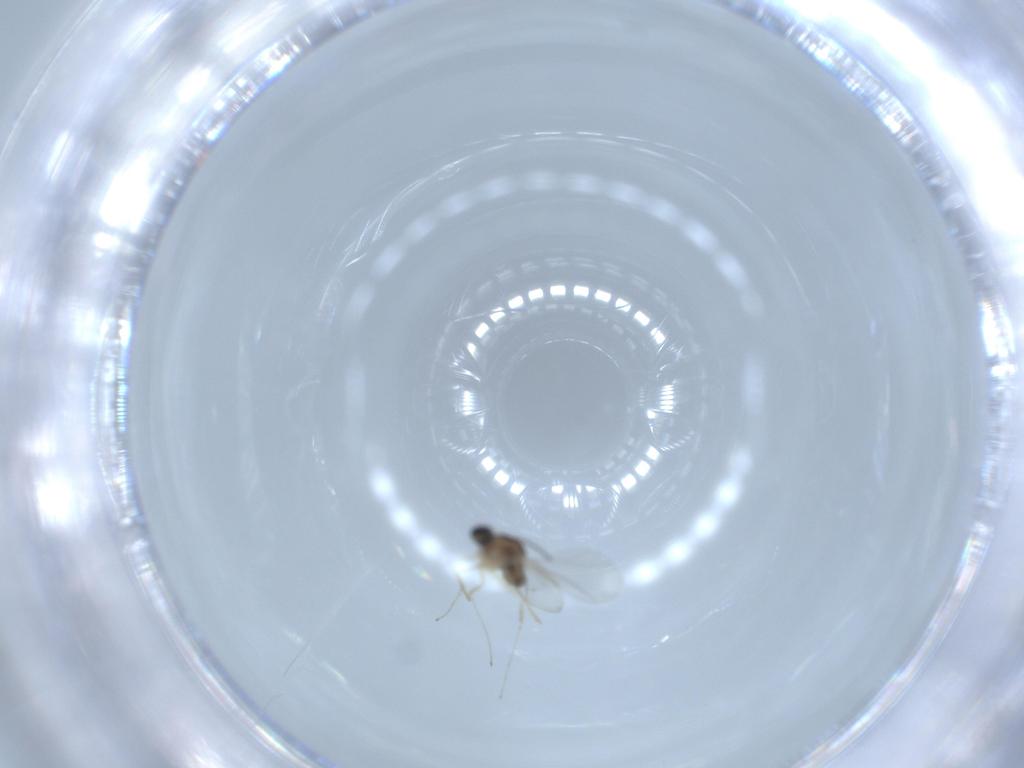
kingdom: Animalia
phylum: Arthropoda
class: Insecta
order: Diptera
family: Cecidomyiidae
